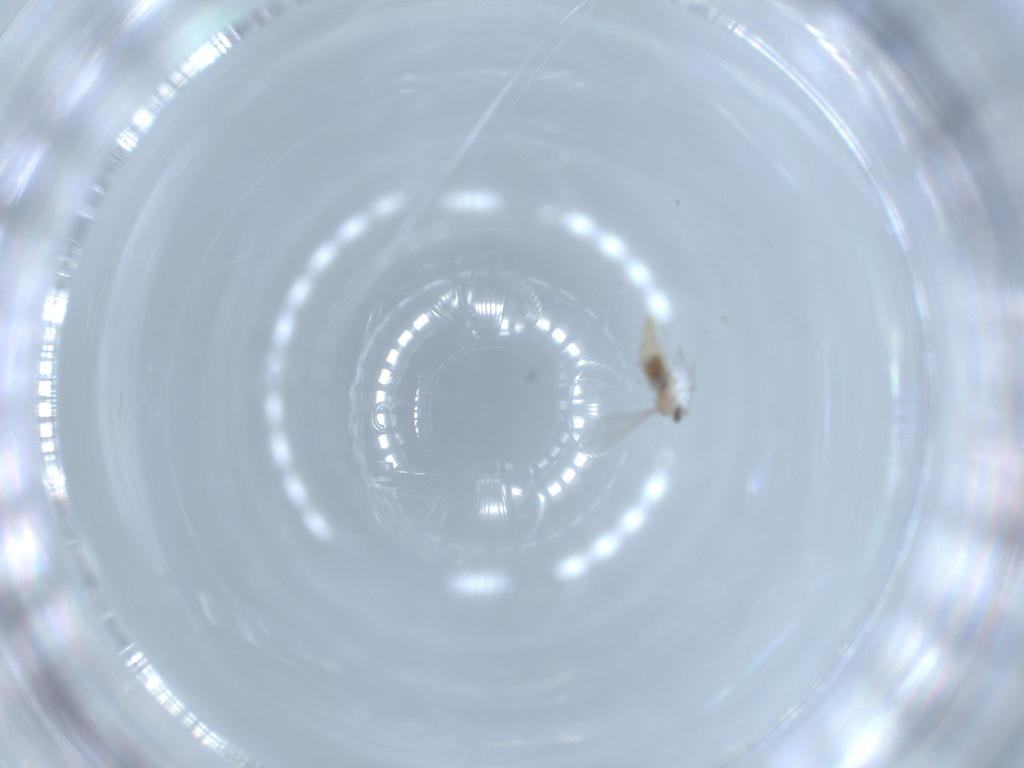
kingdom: Animalia
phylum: Arthropoda
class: Insecta
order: Diptera
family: Cecidomyiidae
